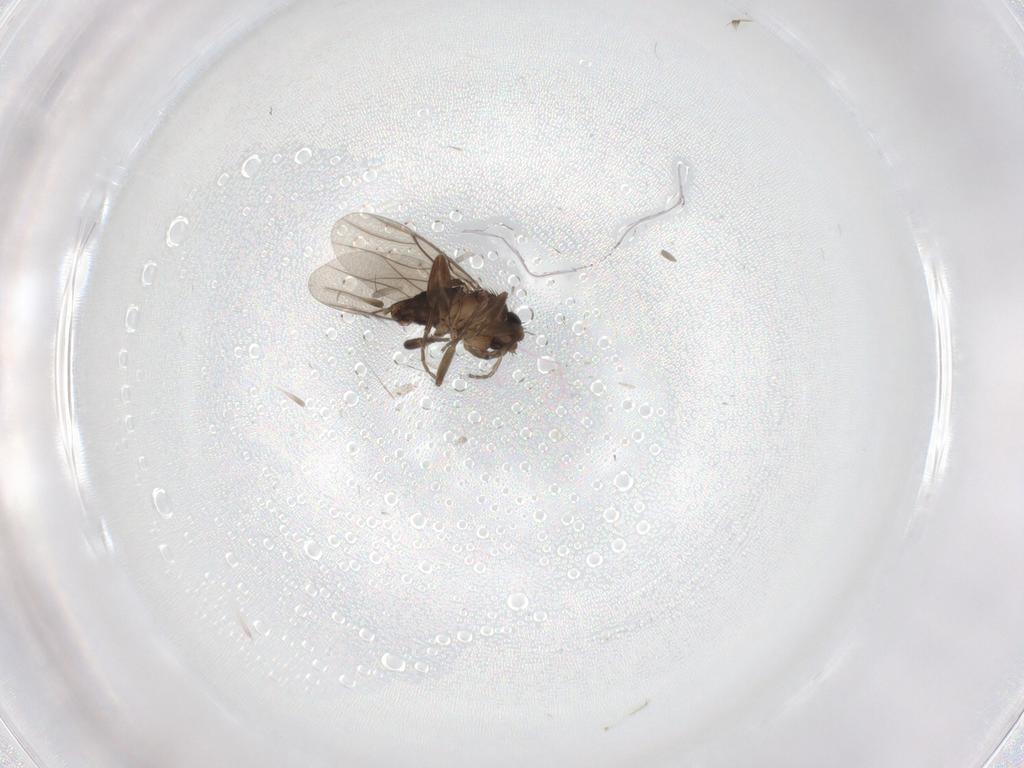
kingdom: Animalia
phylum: Arthropoda
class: Insecta
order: Diptera
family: Phoridae
